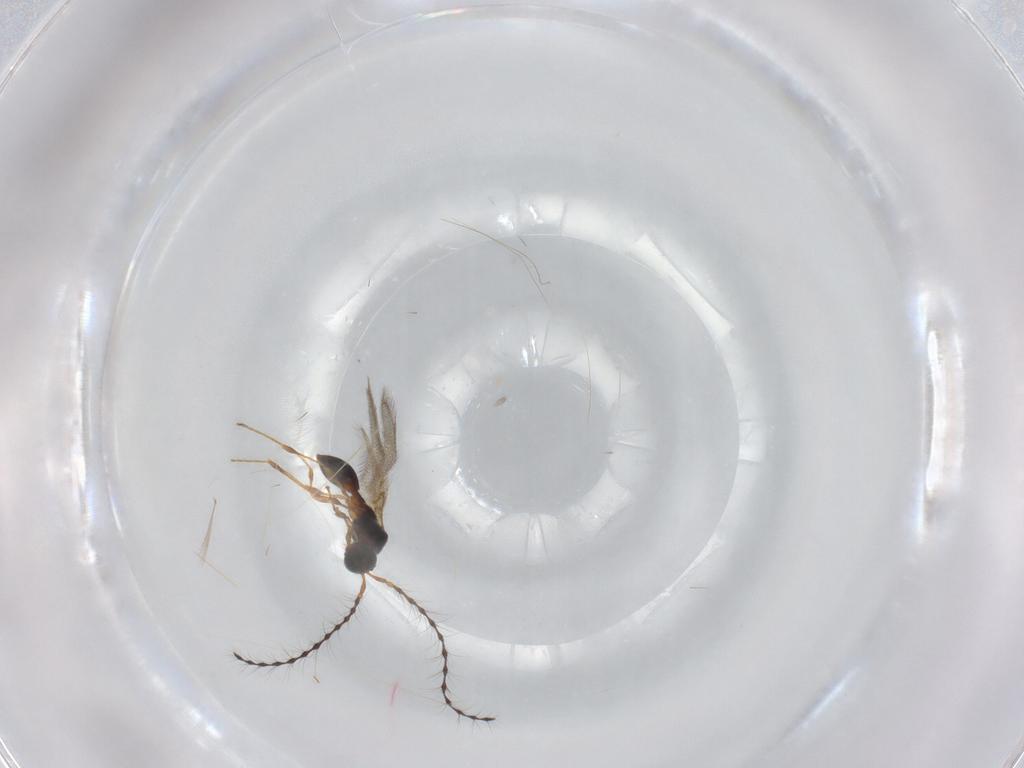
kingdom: Animalia
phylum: Arthropoda
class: Insecta
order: Hymenoptera
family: Diapriidae
